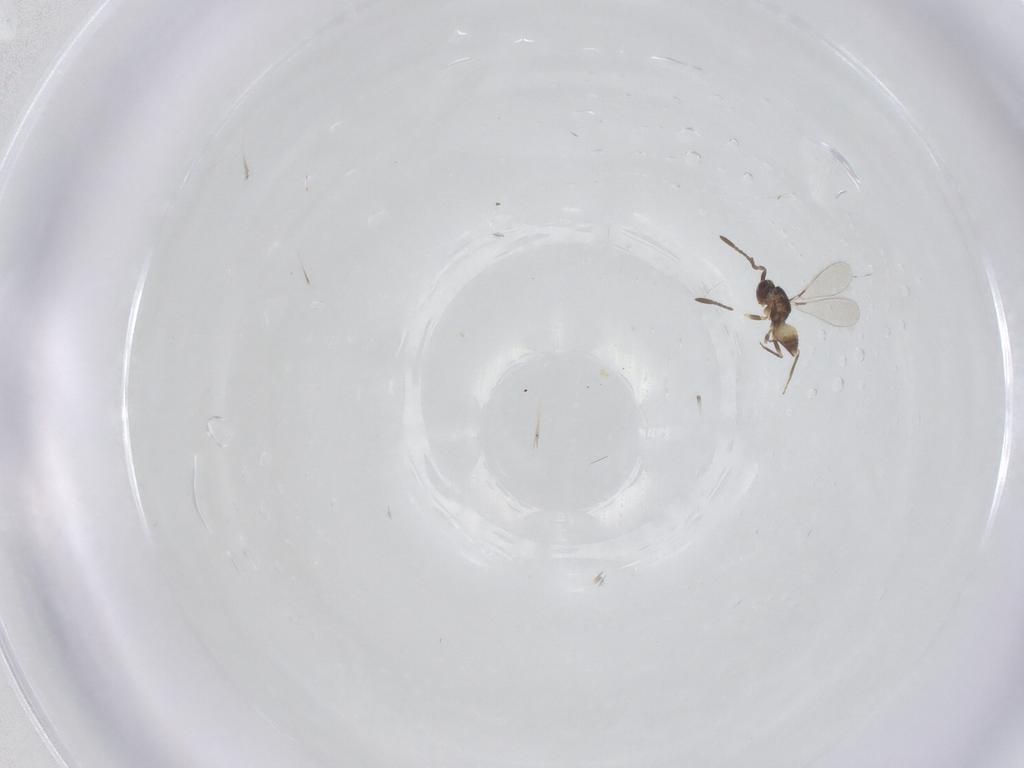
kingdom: Animalia
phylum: Arthropoda
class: Insecta
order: Hymenoptera
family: Mymaridae
